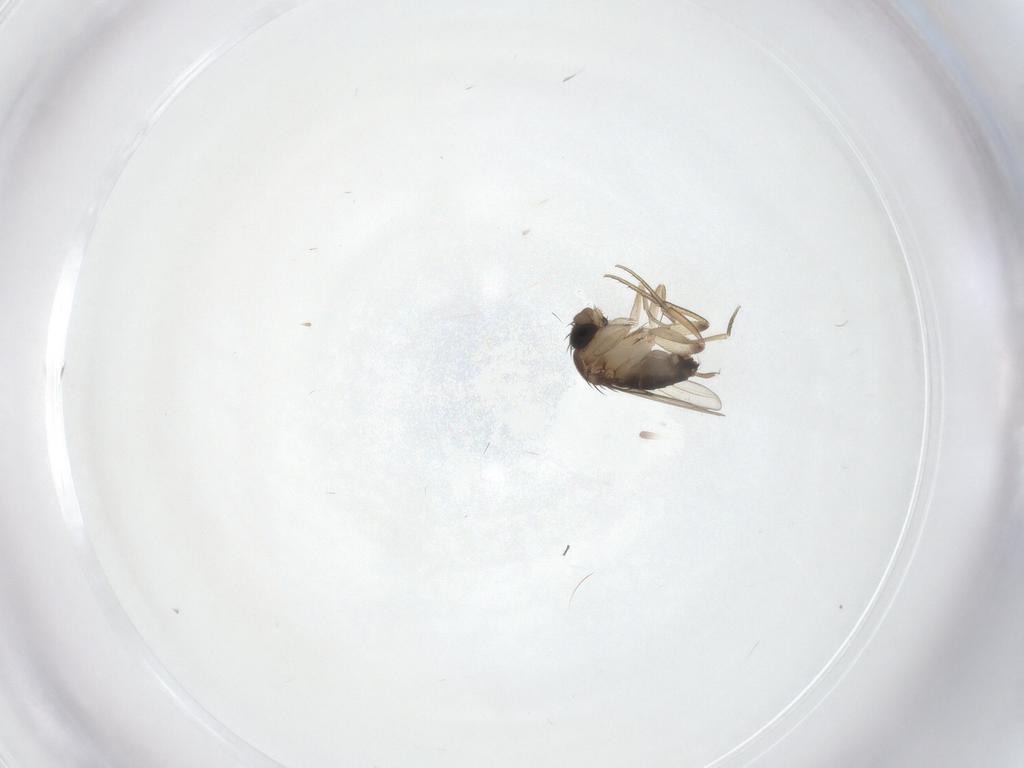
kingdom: Animalia
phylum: Arthropoda
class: Insecta
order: Diptera
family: Phoridae
